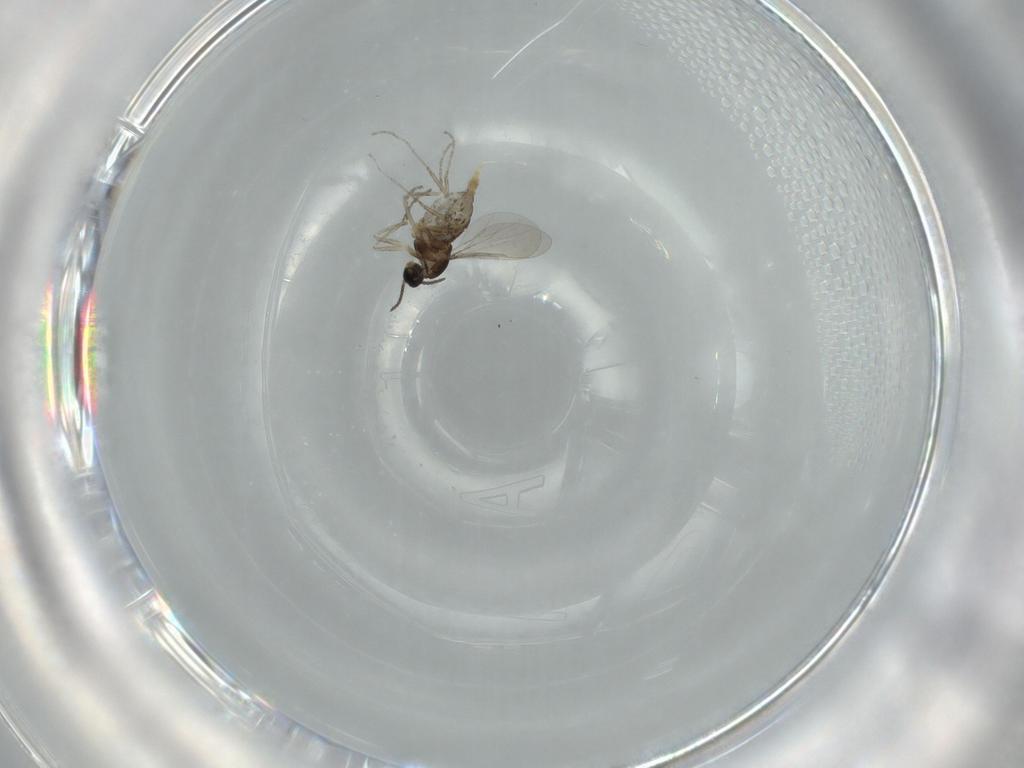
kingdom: Animalia
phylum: Arthropoda
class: Insecta
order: Diptera
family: Cecidomyiidae
